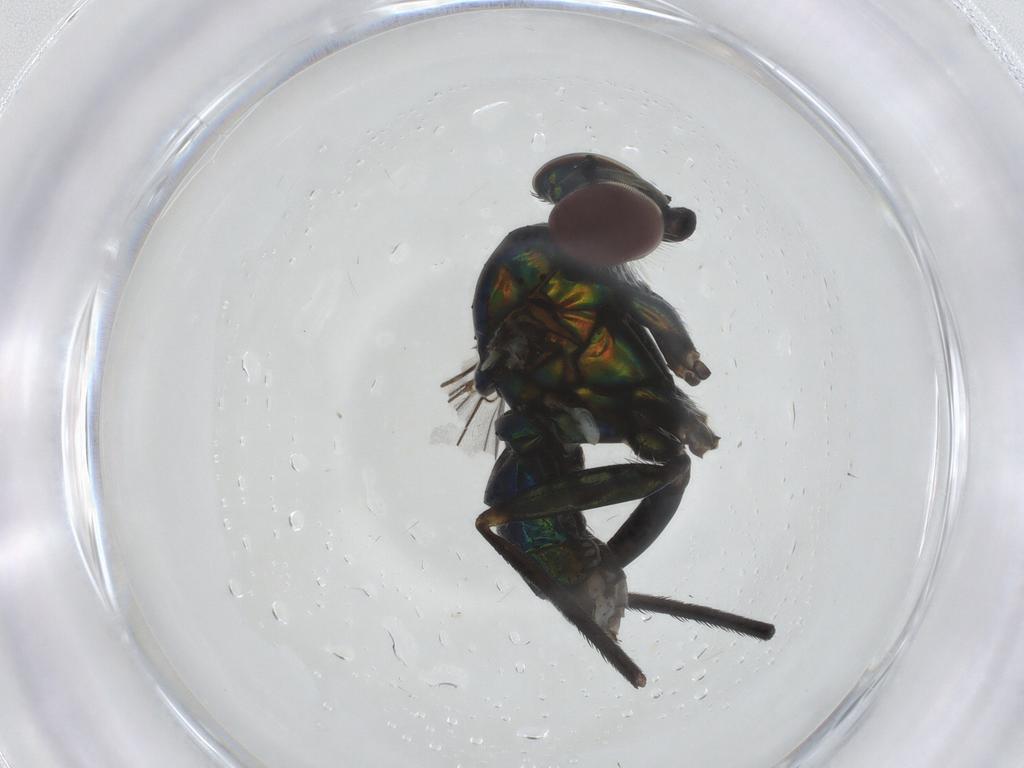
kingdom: Animalia
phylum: Arthropoda
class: Insecta
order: Diptera
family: Dolichopodidae
